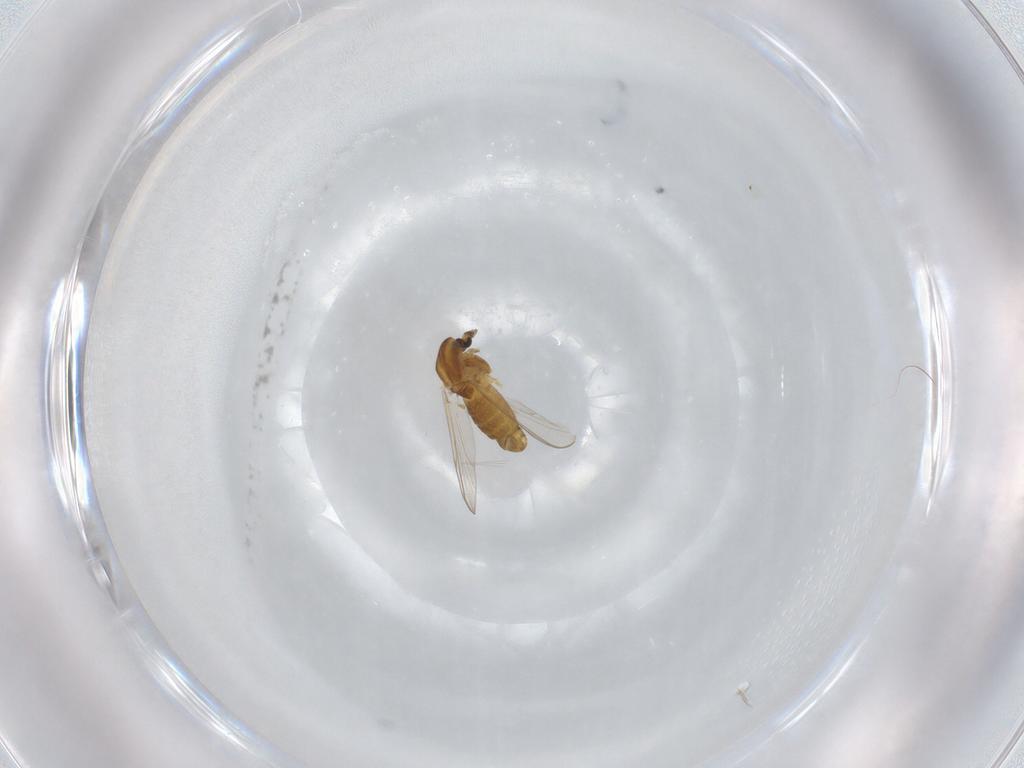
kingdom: Animalia
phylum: Arthropoda
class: Insecta
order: Diptera
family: Chironomidae
